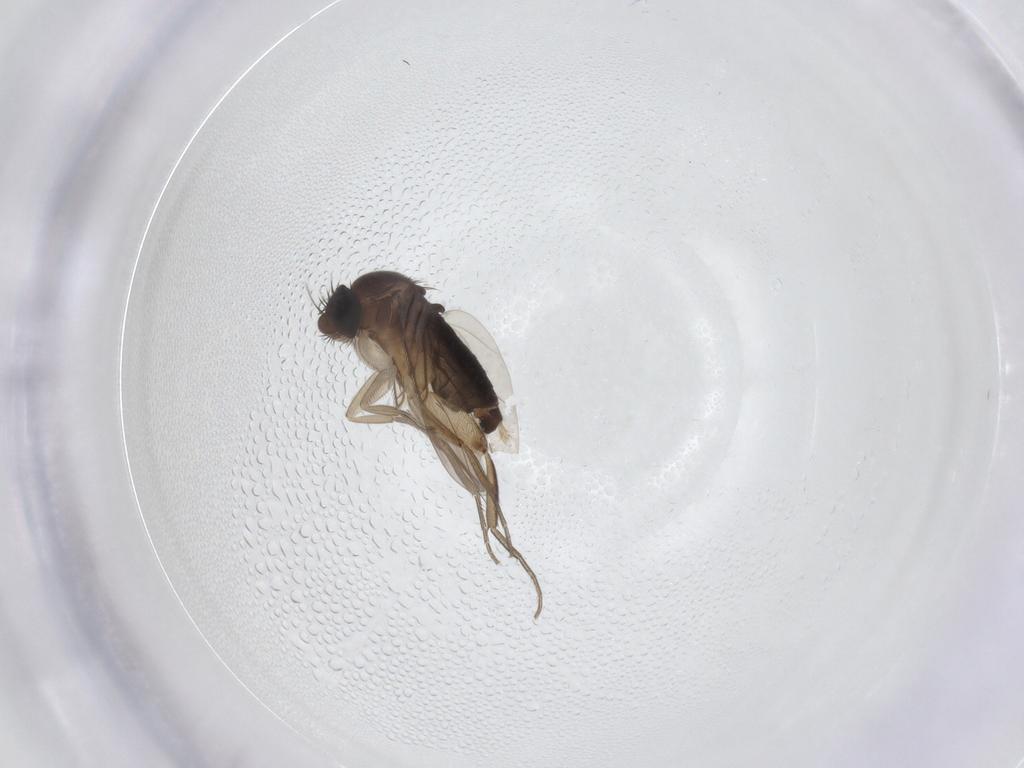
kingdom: Animalia
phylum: Arthropoda
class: Insecta
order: Diptera
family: Phoridae
